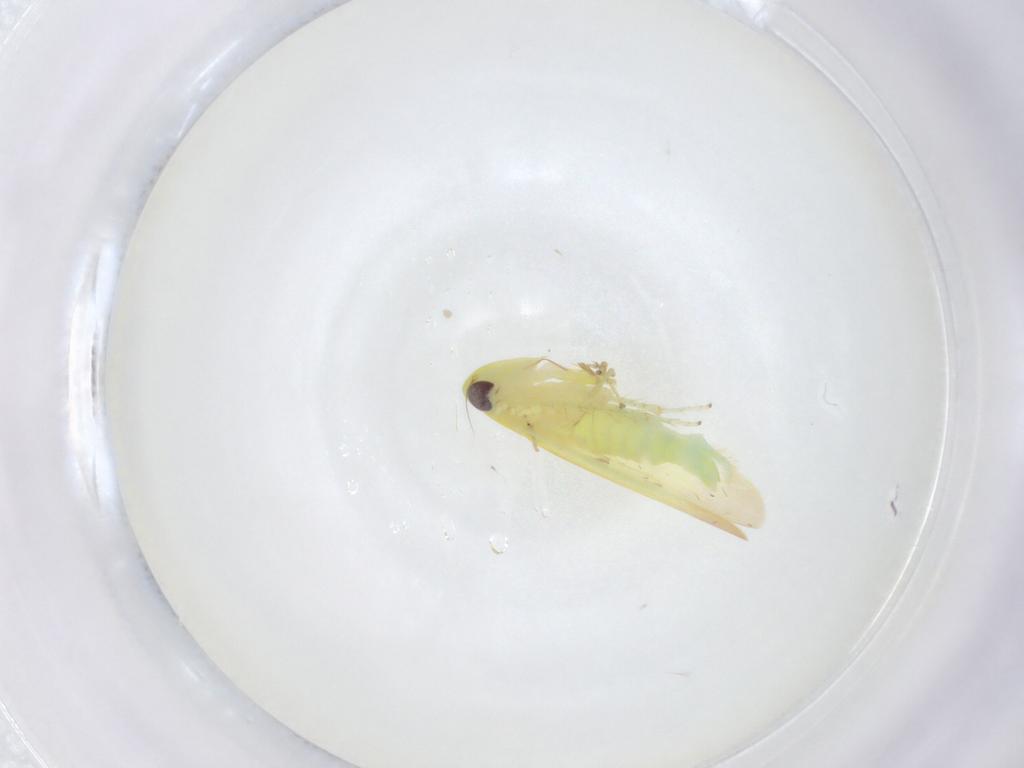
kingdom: Animalia
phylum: Arthropoda
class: Insecta
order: Hemiptera
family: Cicadellidae
